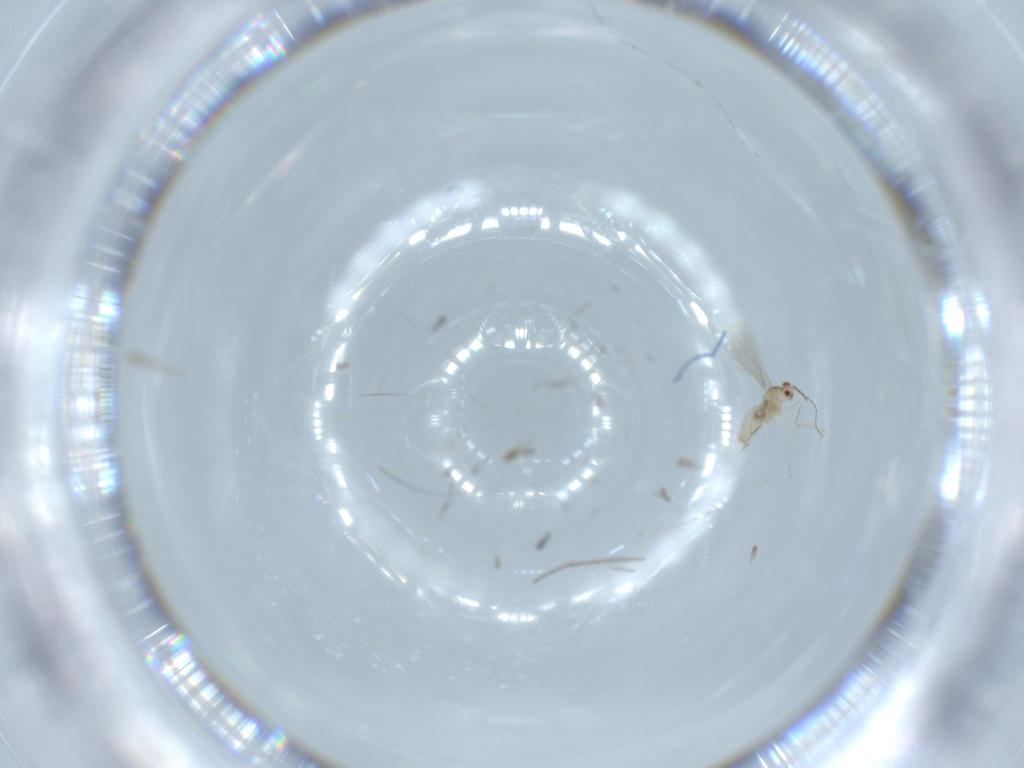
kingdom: Animalia
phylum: Arthropoda
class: Insecta
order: Diptera
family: Cecidomyiidae
